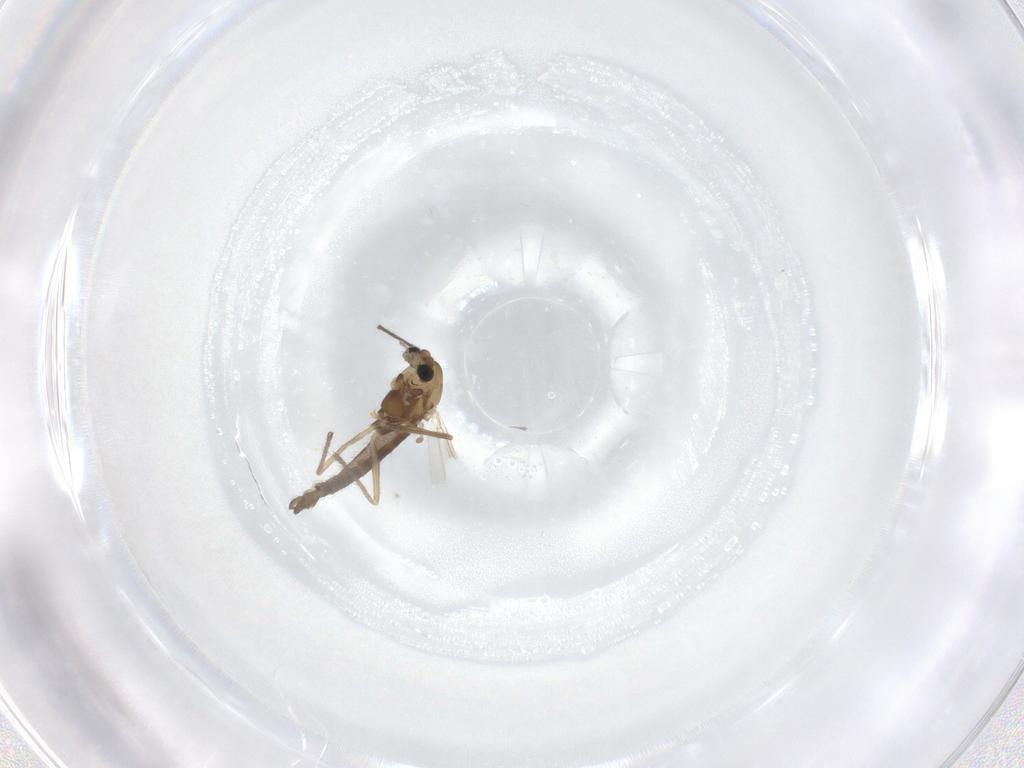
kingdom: Animalia
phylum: Arthropoda
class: Insecta
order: Diptera
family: Chironomidae
